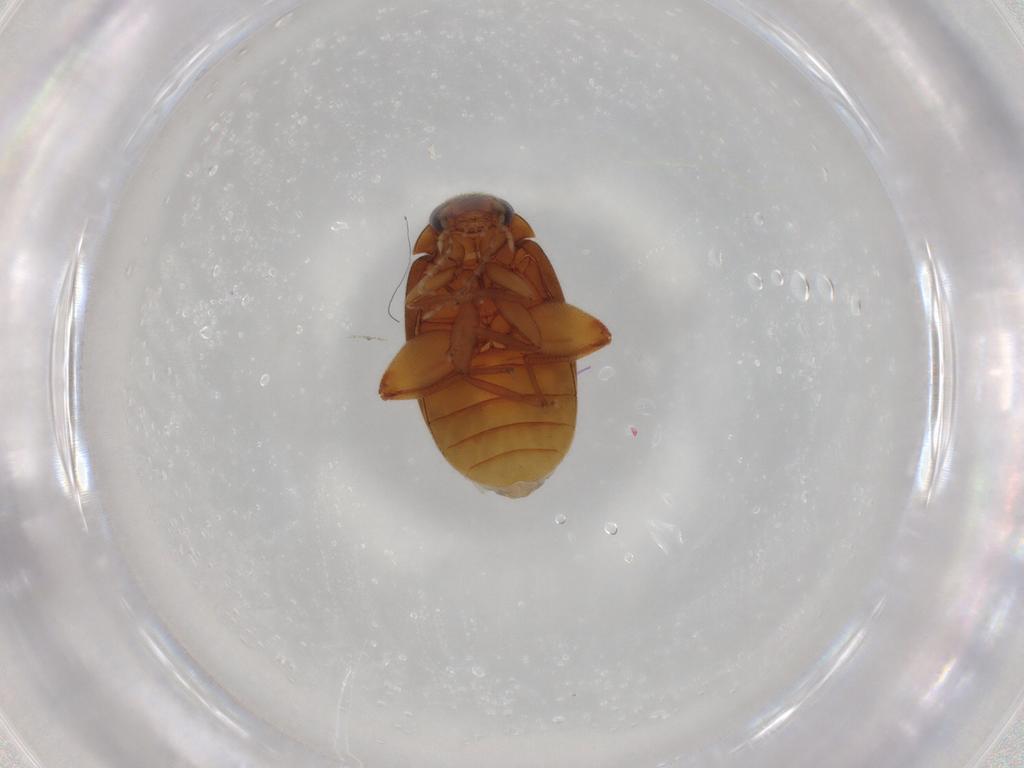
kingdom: Animalia
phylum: Arthropoda
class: Insecta
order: Coleoptera
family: Scirtidae
